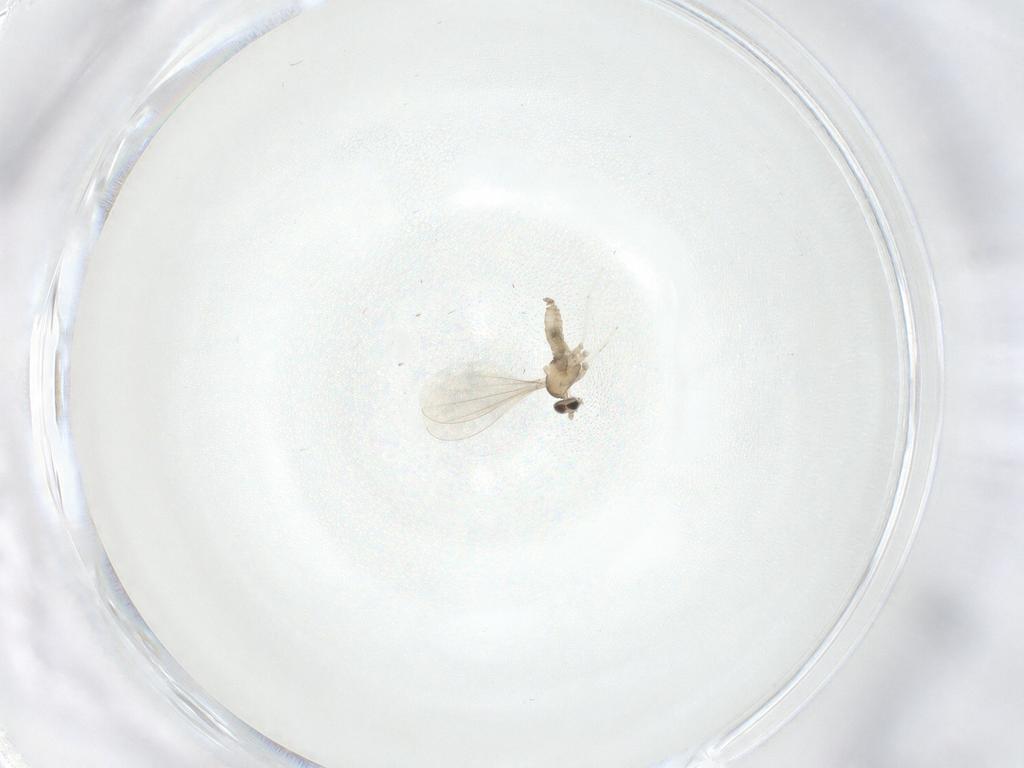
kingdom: Animalia
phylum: Arthropoda
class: Insecta
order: Diptera
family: Cecidomyiidae
